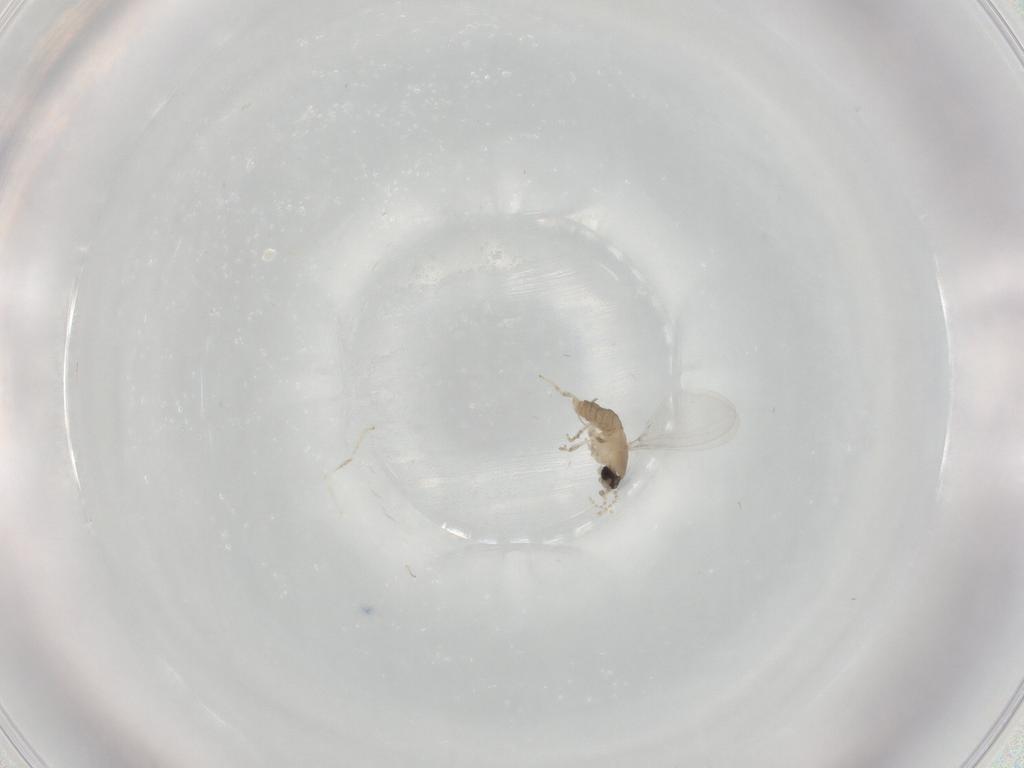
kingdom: Animalia
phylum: Arthropoda
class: Insecta
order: Diptera
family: Cecidomyiidae
